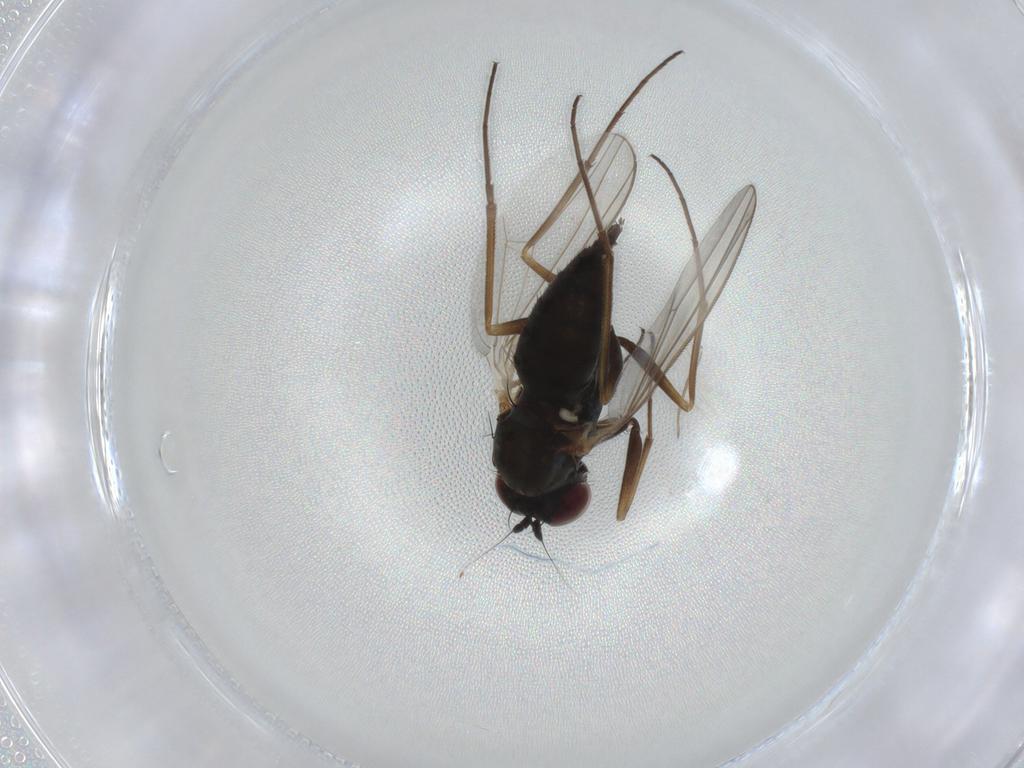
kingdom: Animalia
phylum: Arthropoda
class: Insecta
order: Diptera
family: Dolichopodidae
